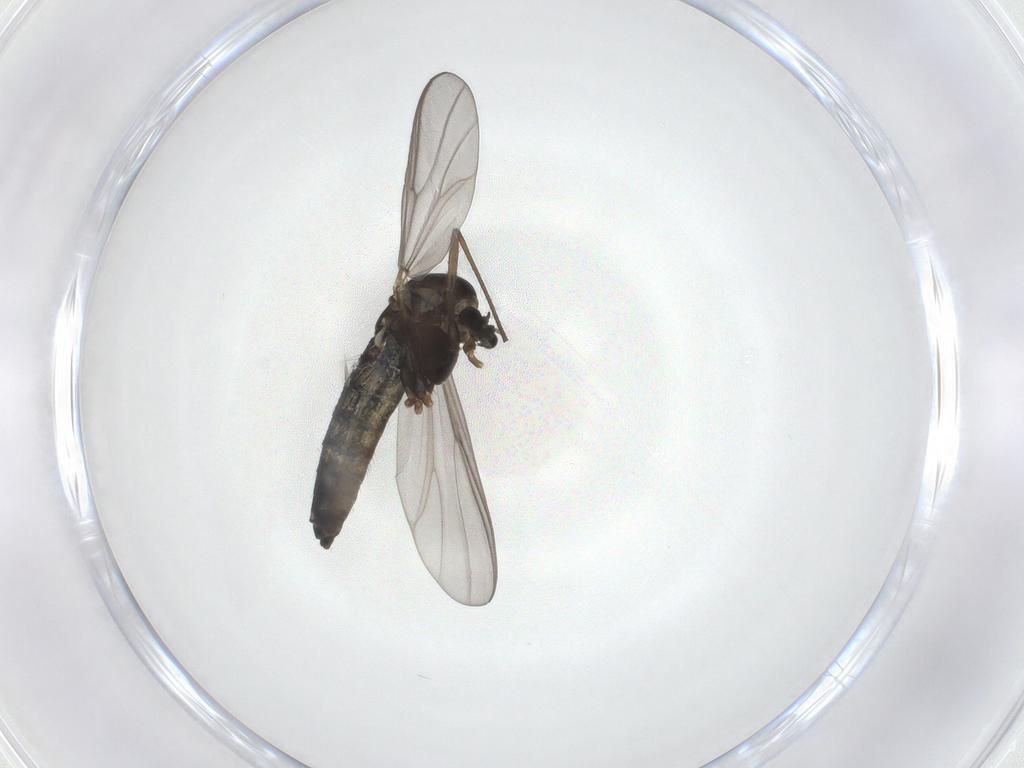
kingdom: Animalia
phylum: Arthropoda
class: Insecta
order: Diptera
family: Chironomidae
